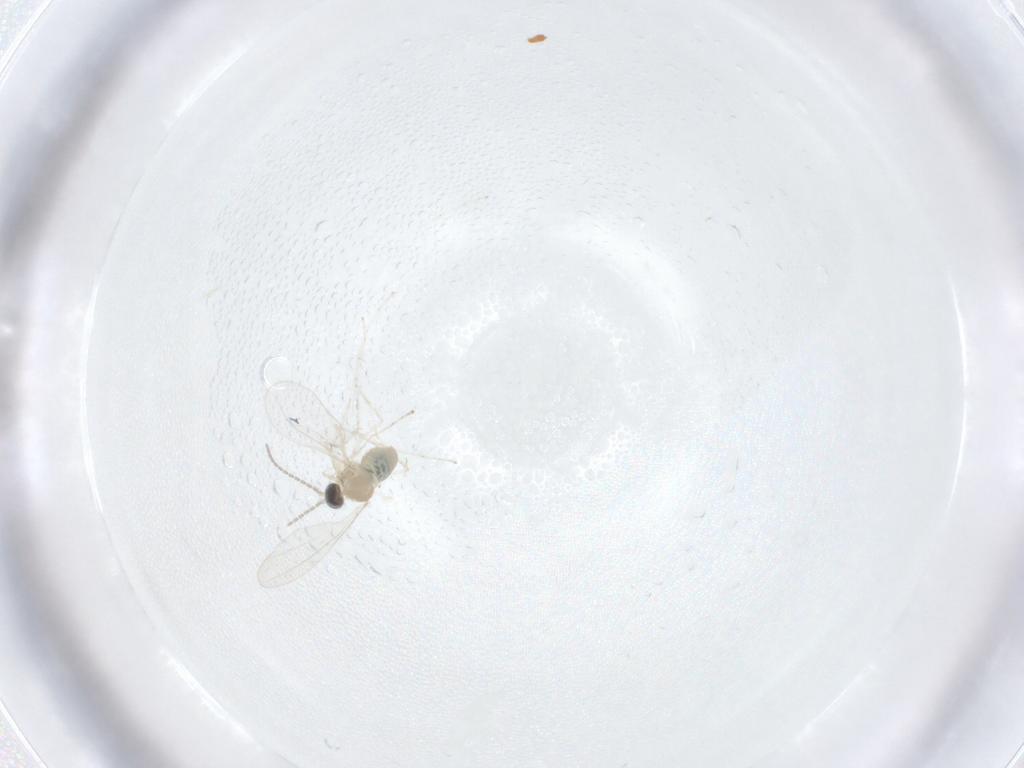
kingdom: Animalia
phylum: Arthropoda
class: Insecta
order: Diptera
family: Cecidomyiidae
